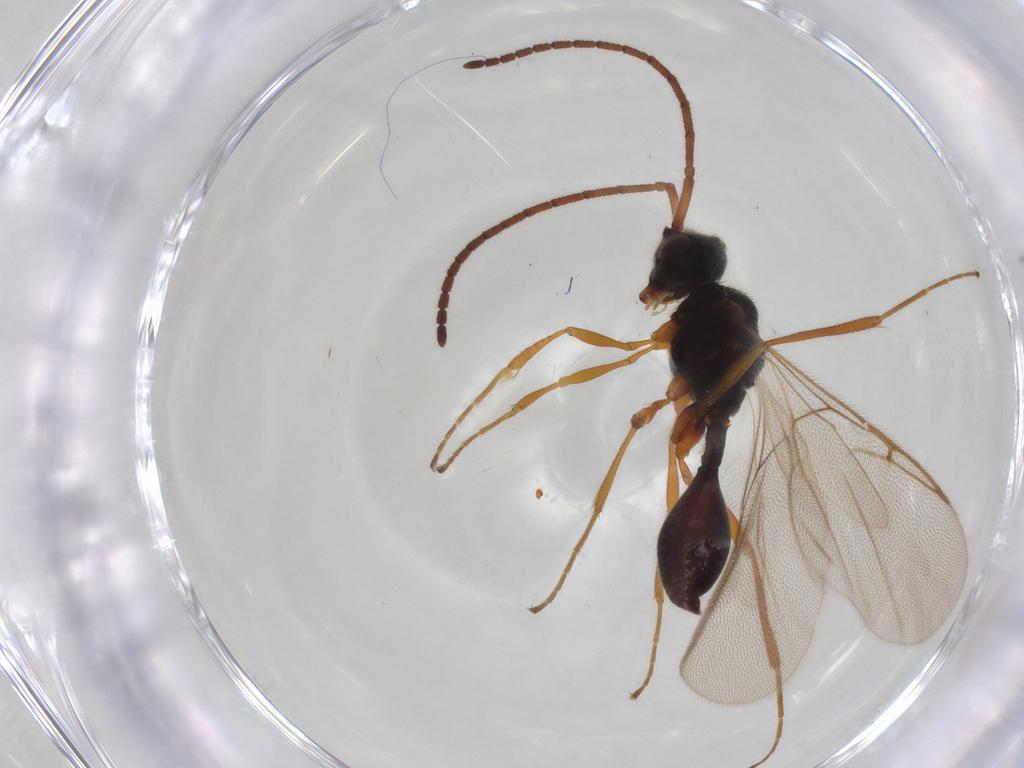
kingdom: Animalia
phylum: Arthropoda
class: Insecta
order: Hymenoptera
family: Diapriidae
